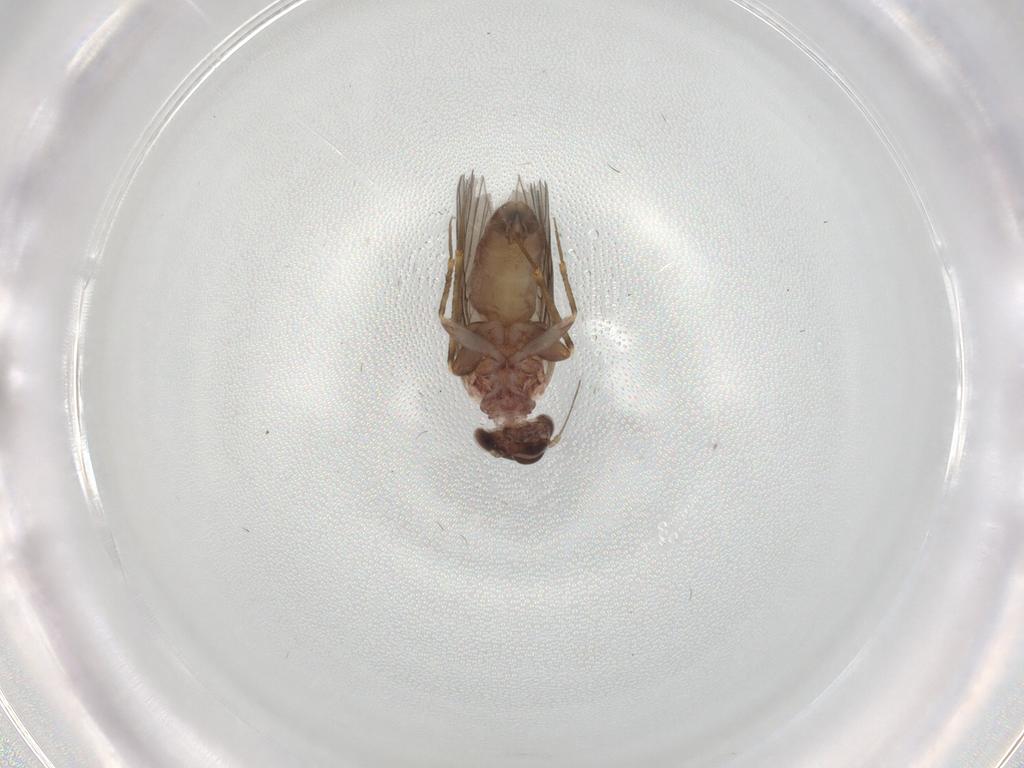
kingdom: Animalia
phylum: Arthropoda
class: Insecta
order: Psocodea
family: Lepidopsocidae
